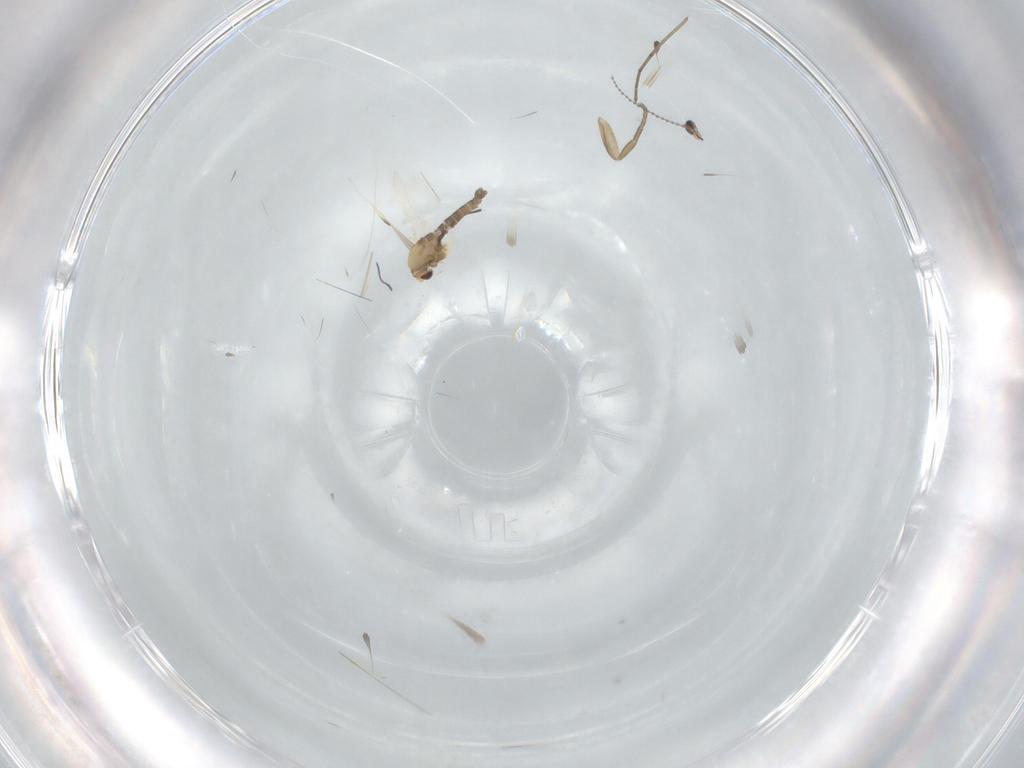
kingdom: Animalia
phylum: Arthropoda
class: Insecta
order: Diptera
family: Chironomidae
